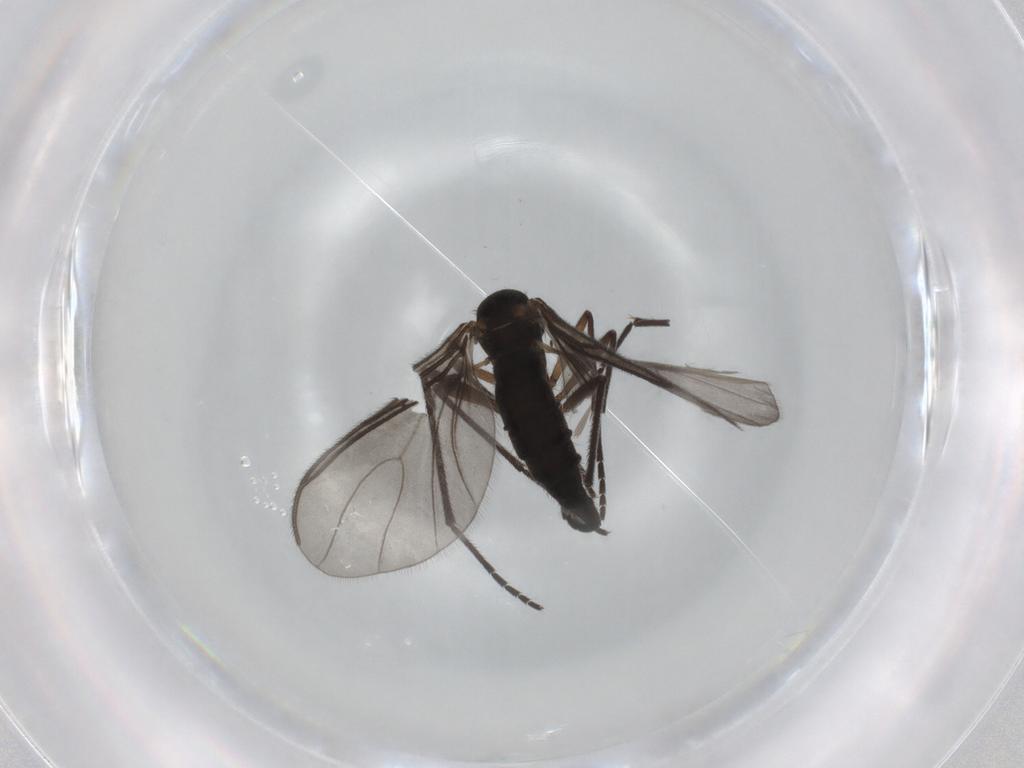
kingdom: Animalia
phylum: Arthropoda
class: Insecta
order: Diptera
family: Sciaridae
